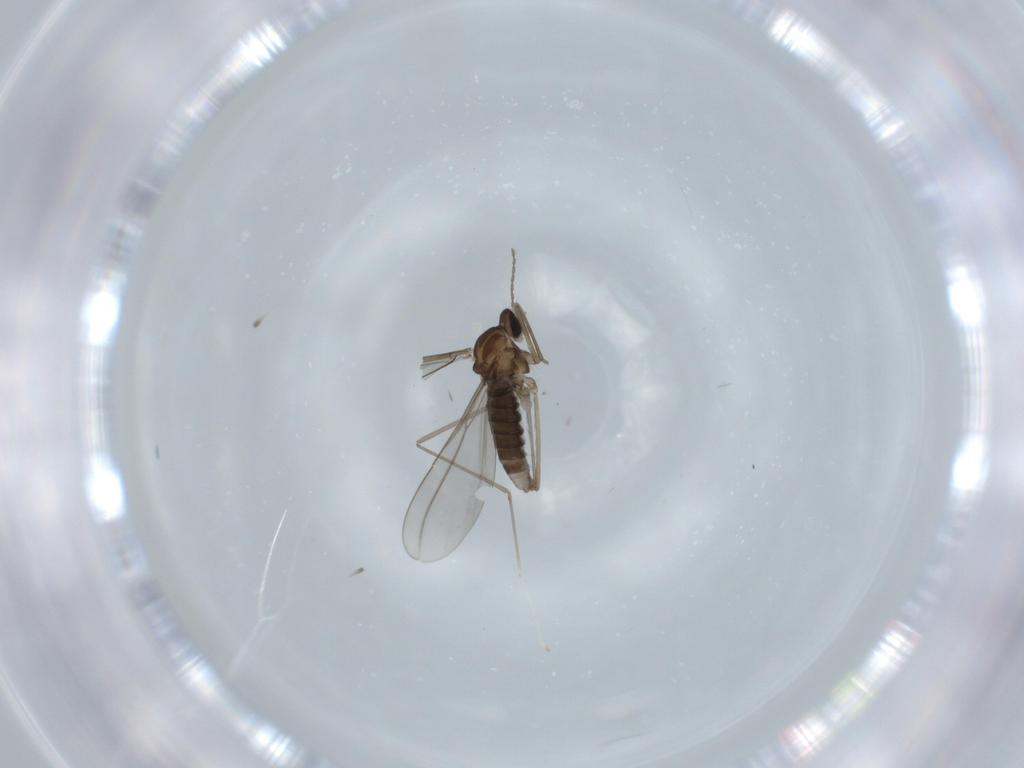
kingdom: Animalia
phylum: Arthropoda
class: Insecta
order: Diptera
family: Cecidomyiidae
